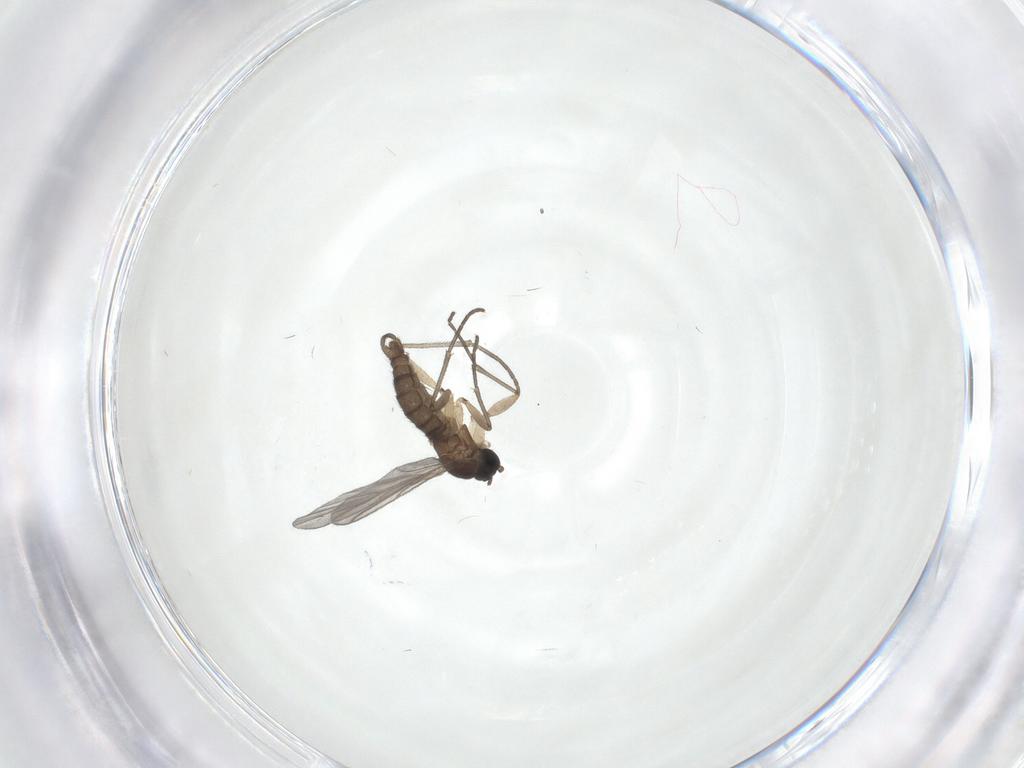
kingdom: Animalia
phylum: Arthropoda
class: Insecta
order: Diptera
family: Sciaridae
